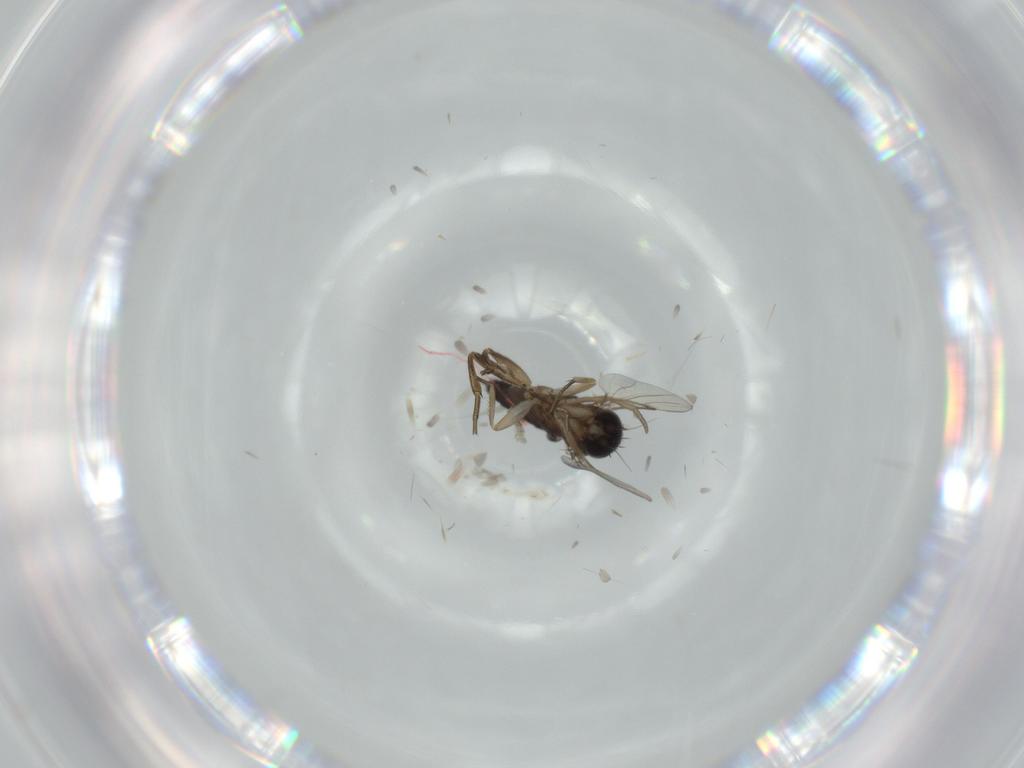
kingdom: Animalia
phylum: Arthropoda
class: Insecta
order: Diptera
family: Phoridae
